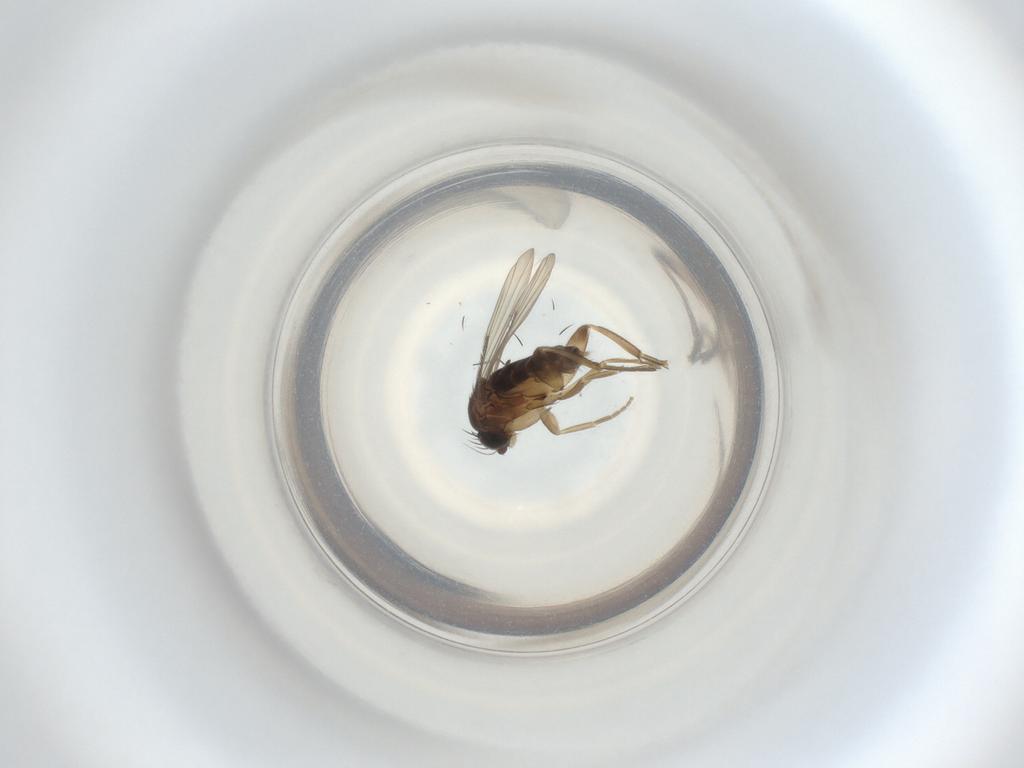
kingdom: Animalia
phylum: Arthropoda
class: Insecta
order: Diptera
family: Phoridae
